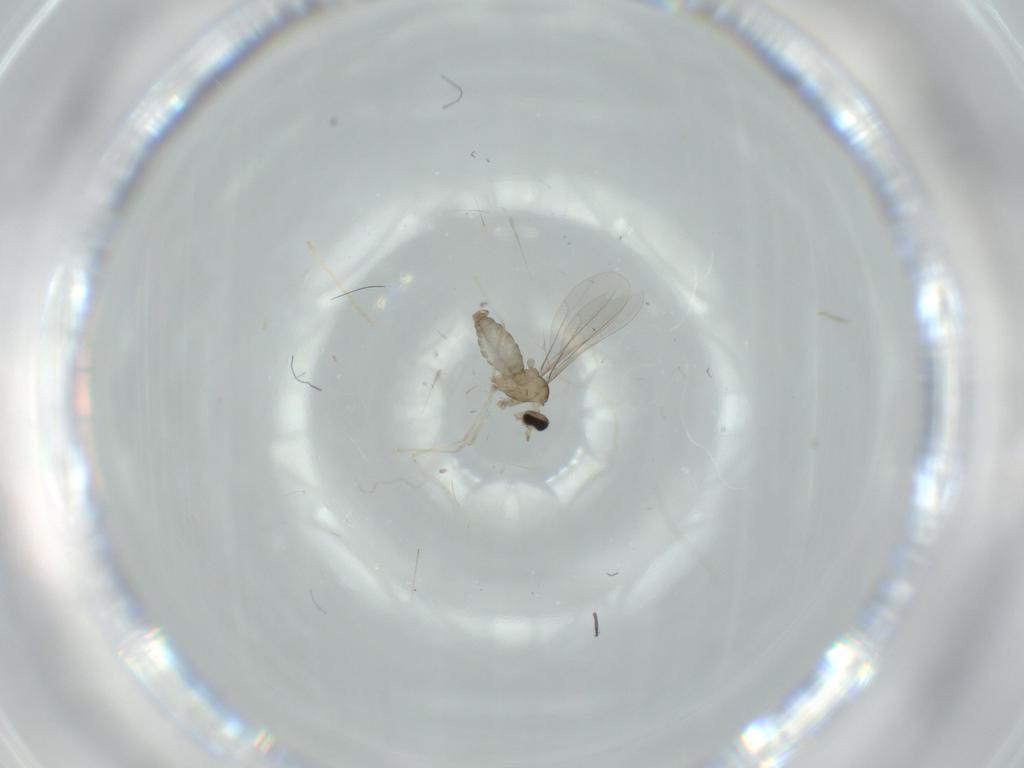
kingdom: Animalia
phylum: Arthropoda
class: Insecta
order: Diptera
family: Cecidomyiidae
